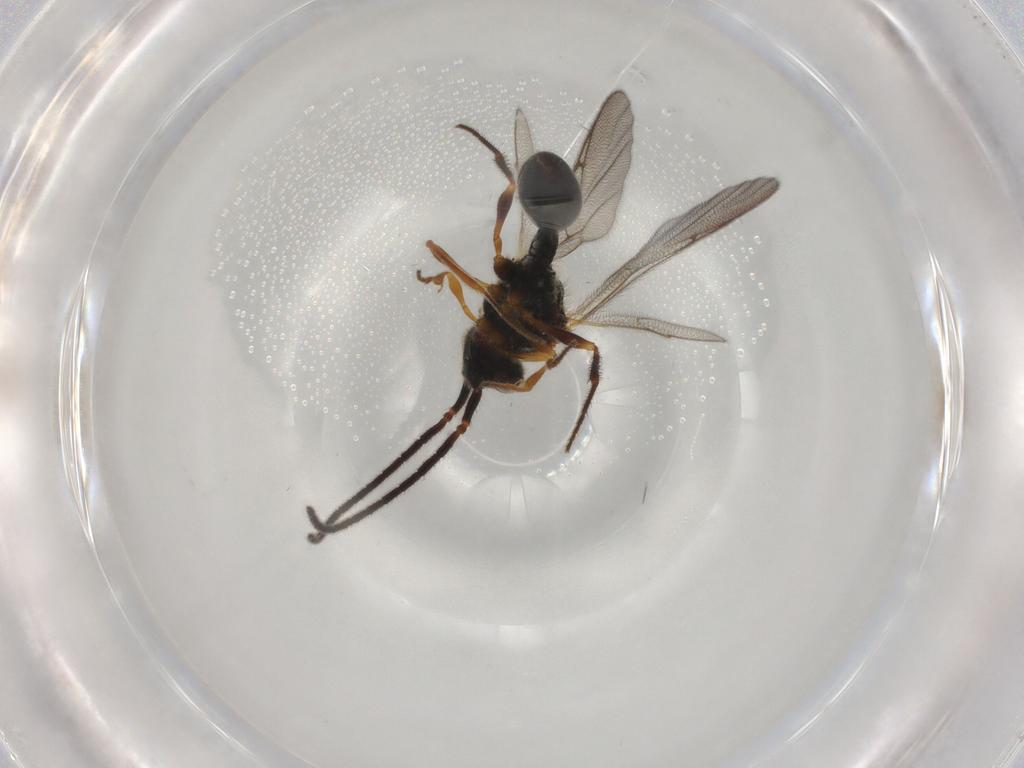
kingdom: Animalia
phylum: Arthropoda
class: Insecta
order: Hymenoptera
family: Diapriidae
